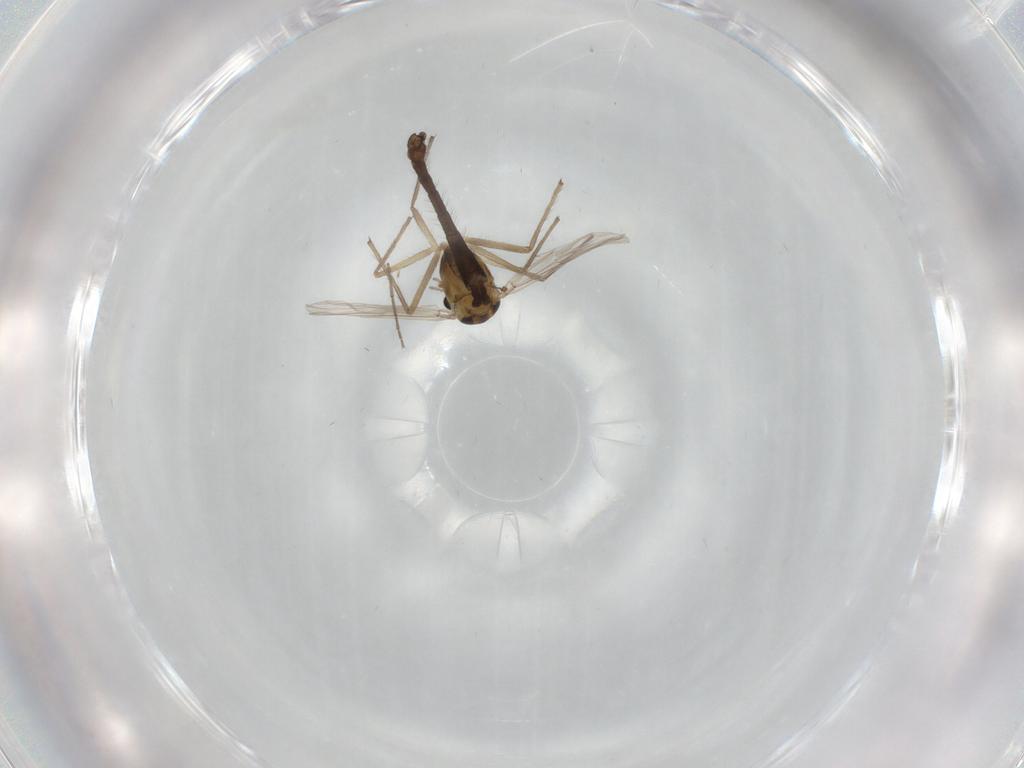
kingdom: Animalia
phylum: Arthropoda
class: Insecta
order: Diptera
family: Chironomidae
